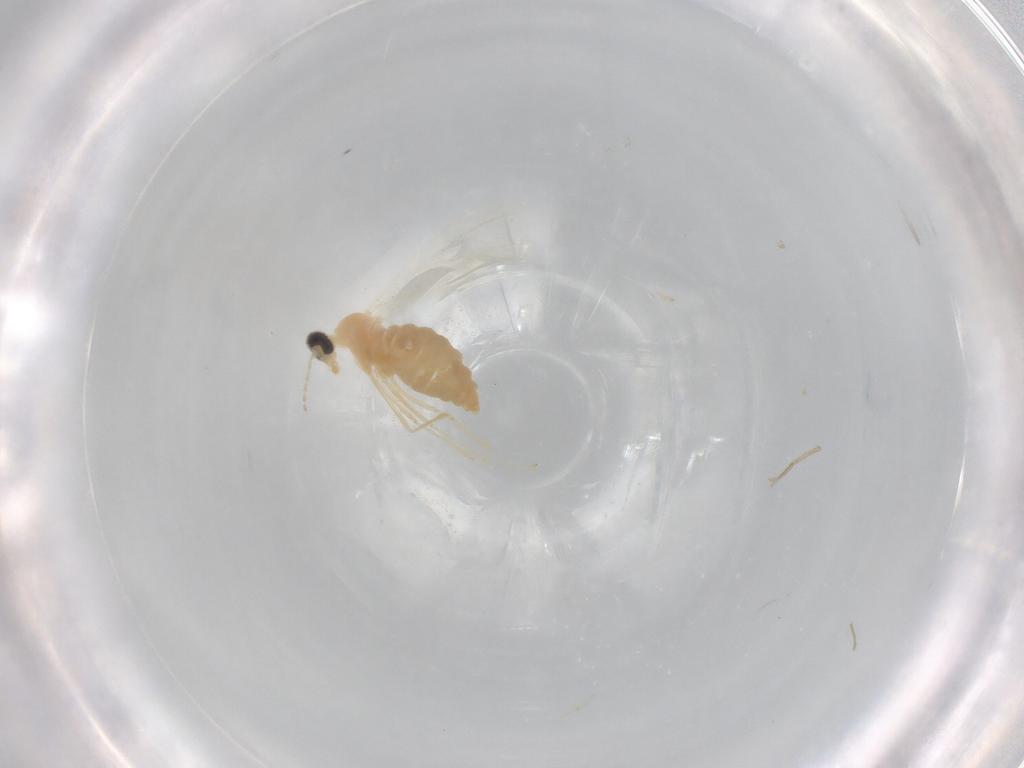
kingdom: Animalia
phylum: Arthropoda
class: Insecta
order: Diptera
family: Cecidomyiidae
